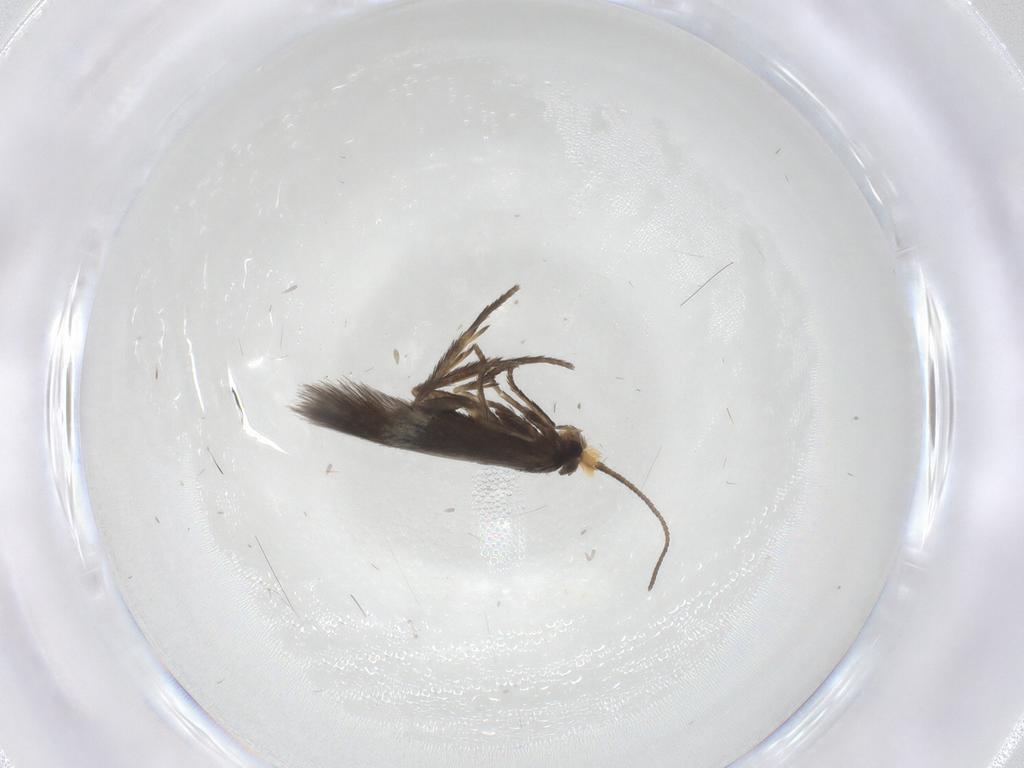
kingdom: Animalia
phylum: Arthropoda
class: Insecta
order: Lepidoptera
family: Nepticulidae
